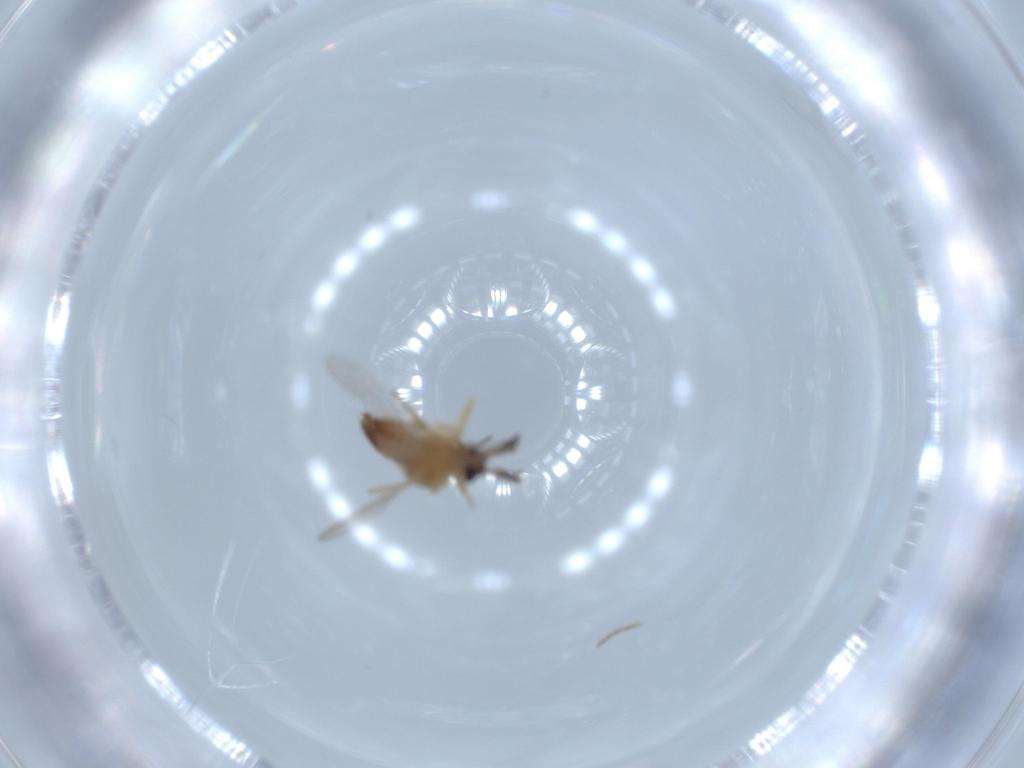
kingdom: Animalia
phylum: Arthropoda
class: Insecta
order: Diptera
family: Ceratopogonidae
